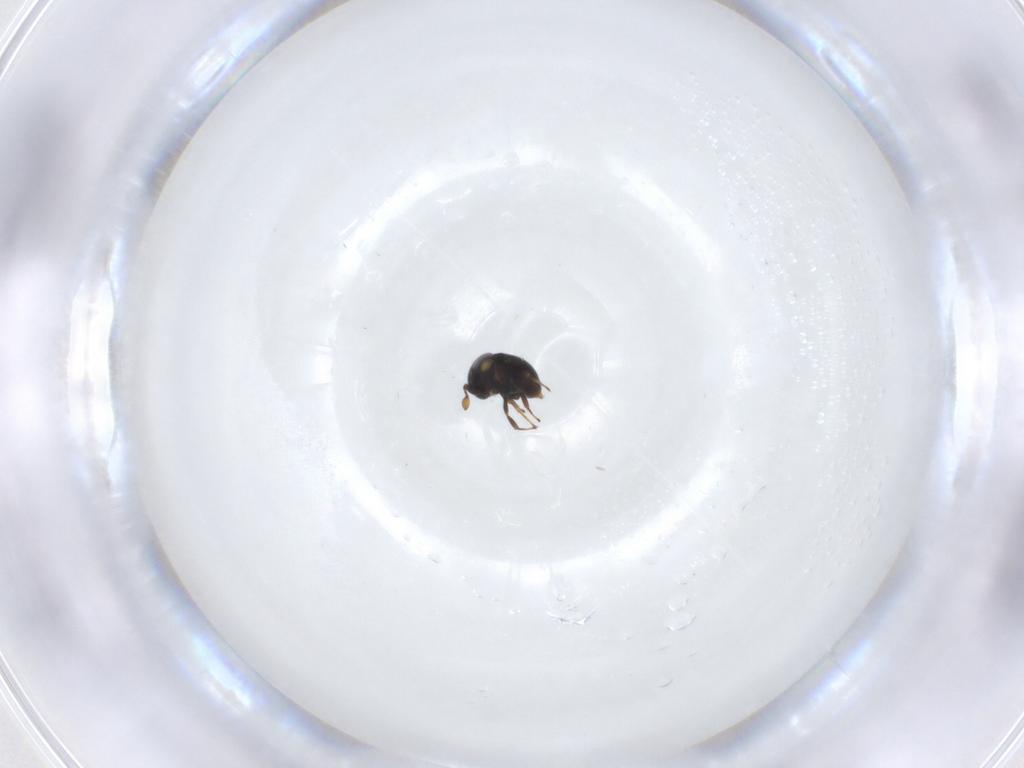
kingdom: Animalia
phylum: Arthropoda
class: Insecta
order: Hymenoptera
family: Scelionidae
